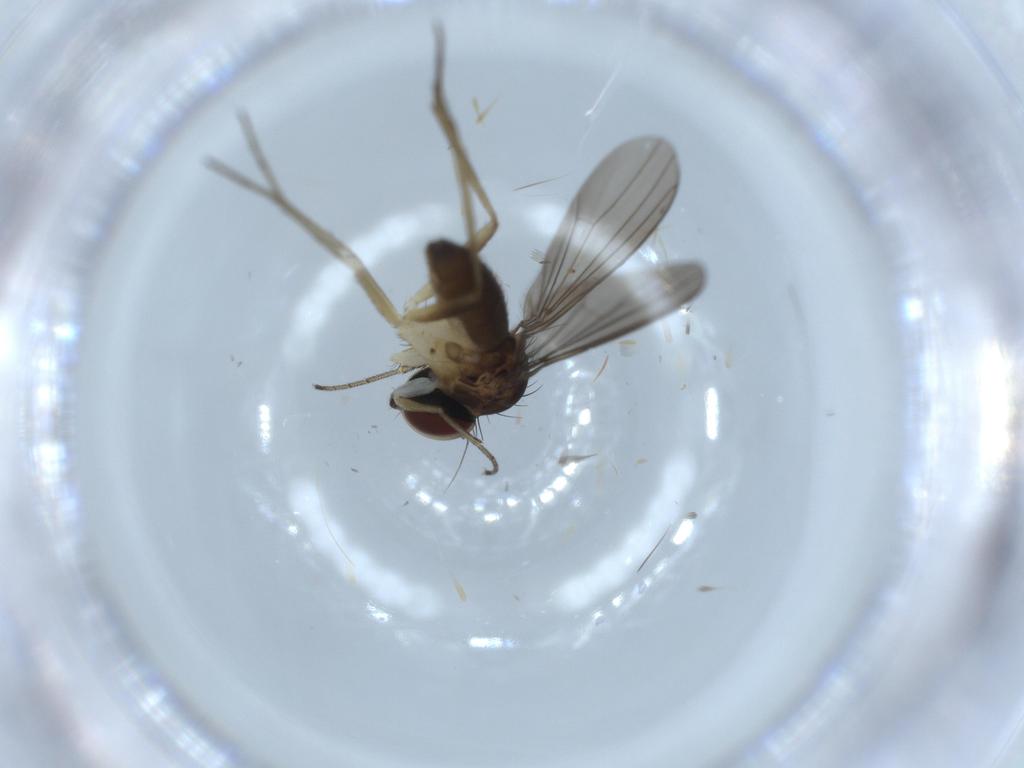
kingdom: Animalia
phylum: Arthropoda
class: Insecta
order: Diptera
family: Dolichopodidae
